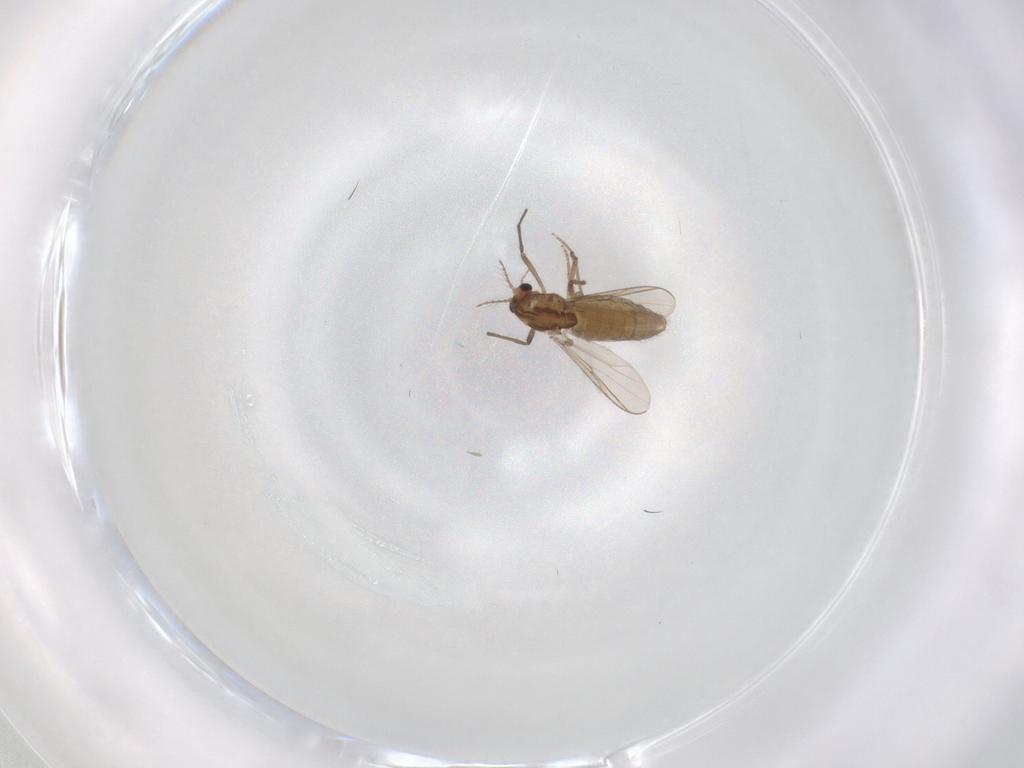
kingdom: Animalia
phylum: Arthropoda
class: Insecta
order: Diptera
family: Chironomidae
